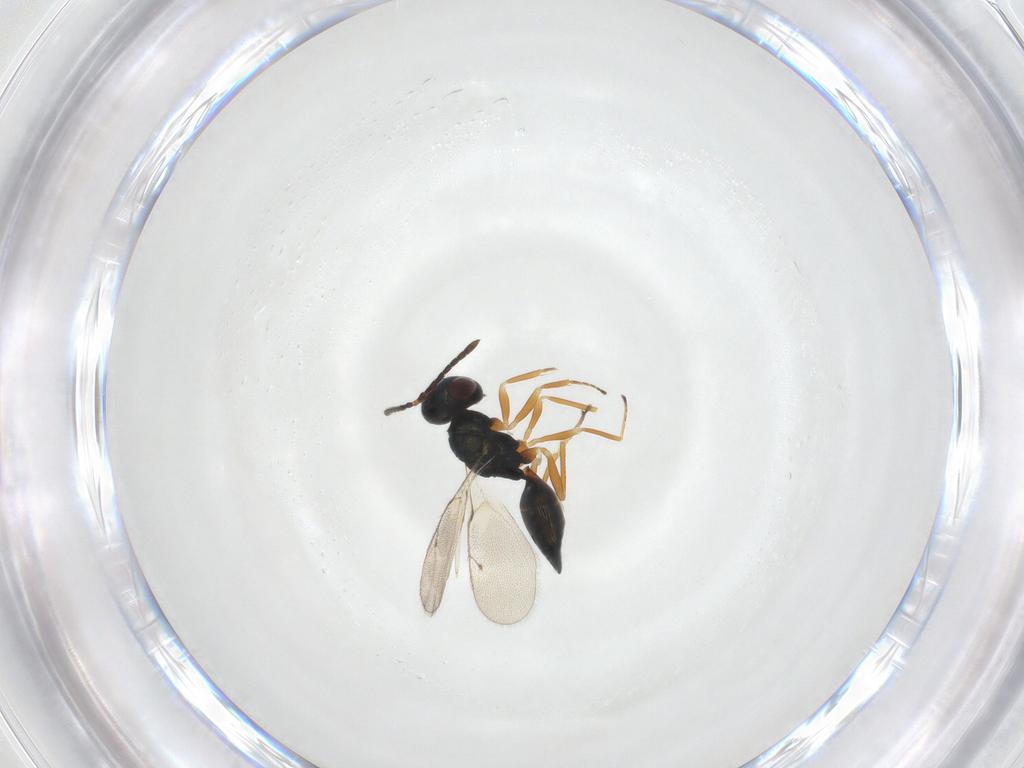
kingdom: Animalia
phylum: Arthropoda
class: Insecta
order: Hymenoptera
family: Pteromalidae
